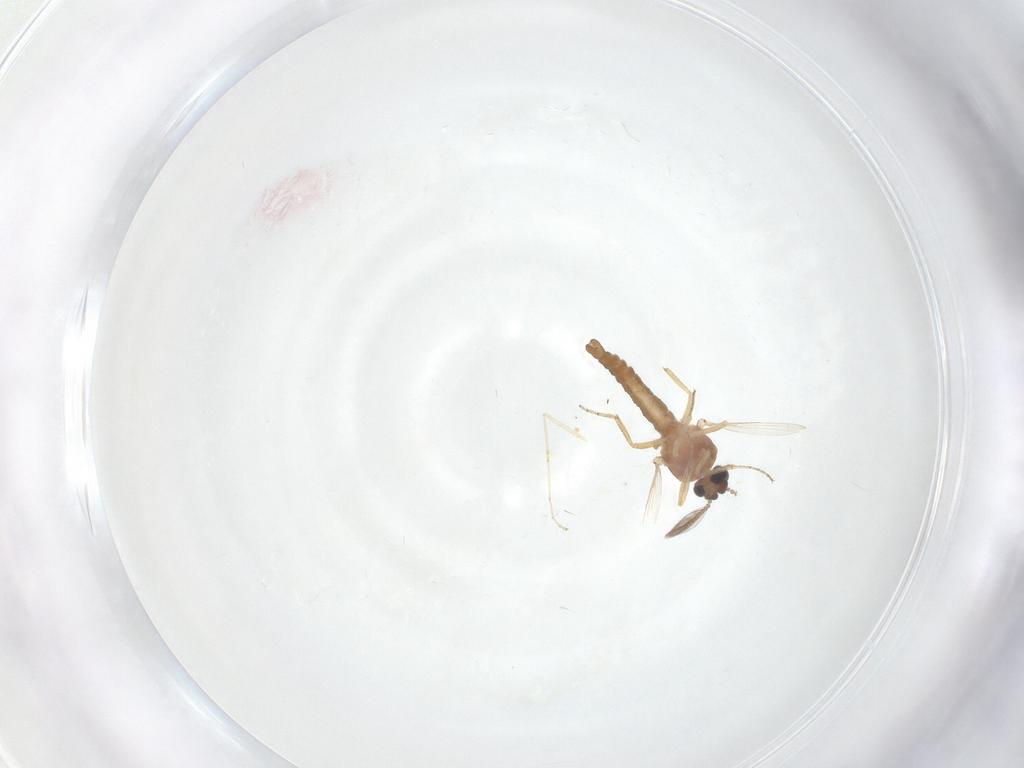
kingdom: Animalia
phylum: Arthropoda
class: Insecta
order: Diptera
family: Ceratopogonidae
